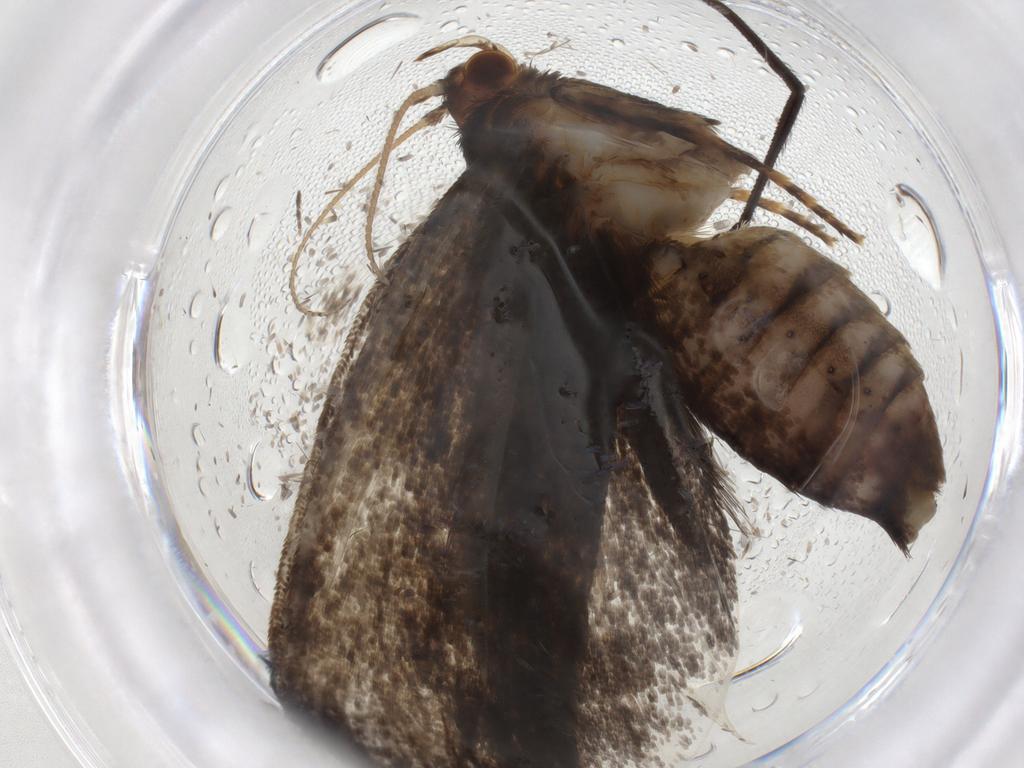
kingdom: Animalia
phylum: Arthropoda
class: Insecta
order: Lepidoptera
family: Tineidae
